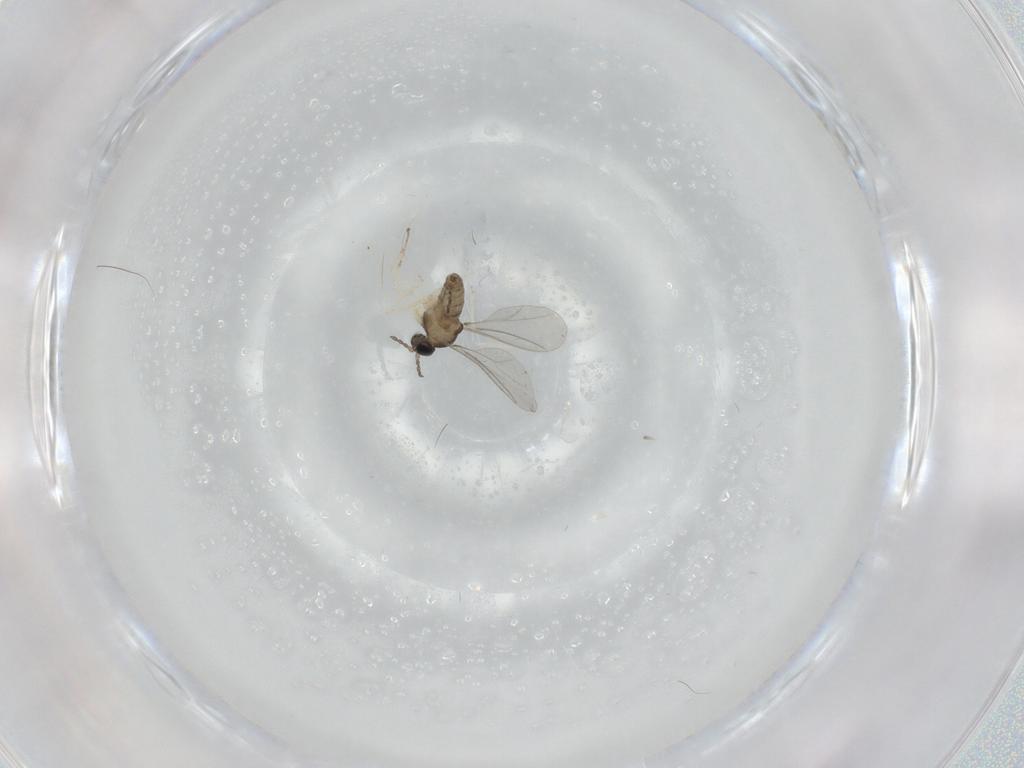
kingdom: Animalia
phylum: Arthropoda
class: Insecta
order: Diptera
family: Cecidomyiidae
